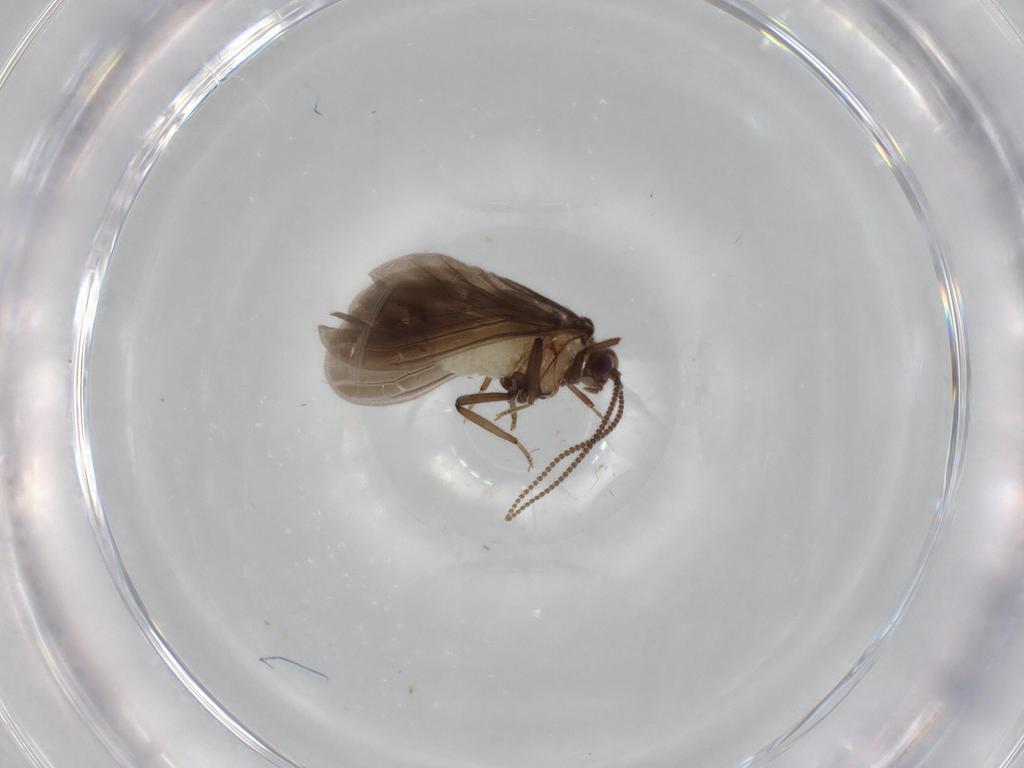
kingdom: Animalia
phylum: Arthropoda
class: Insecta
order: Neuroptera
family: Coniopterygidae
